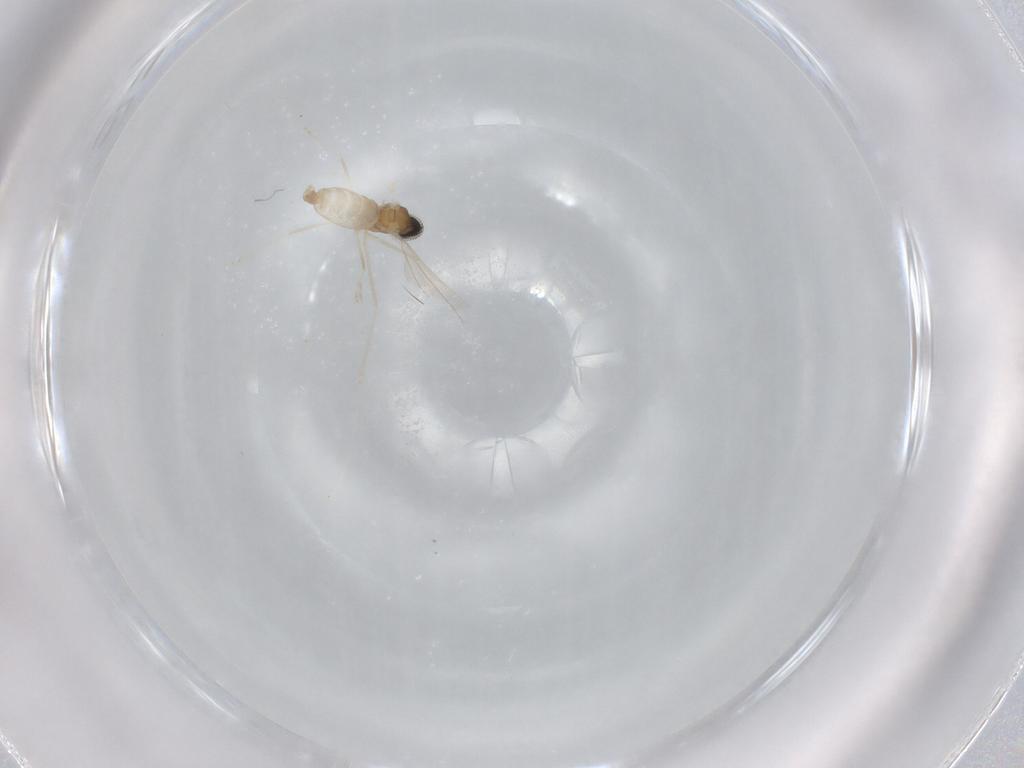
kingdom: Animalia
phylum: Arthropoda
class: Insecta
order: Diptera
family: Cecidomyiidae
